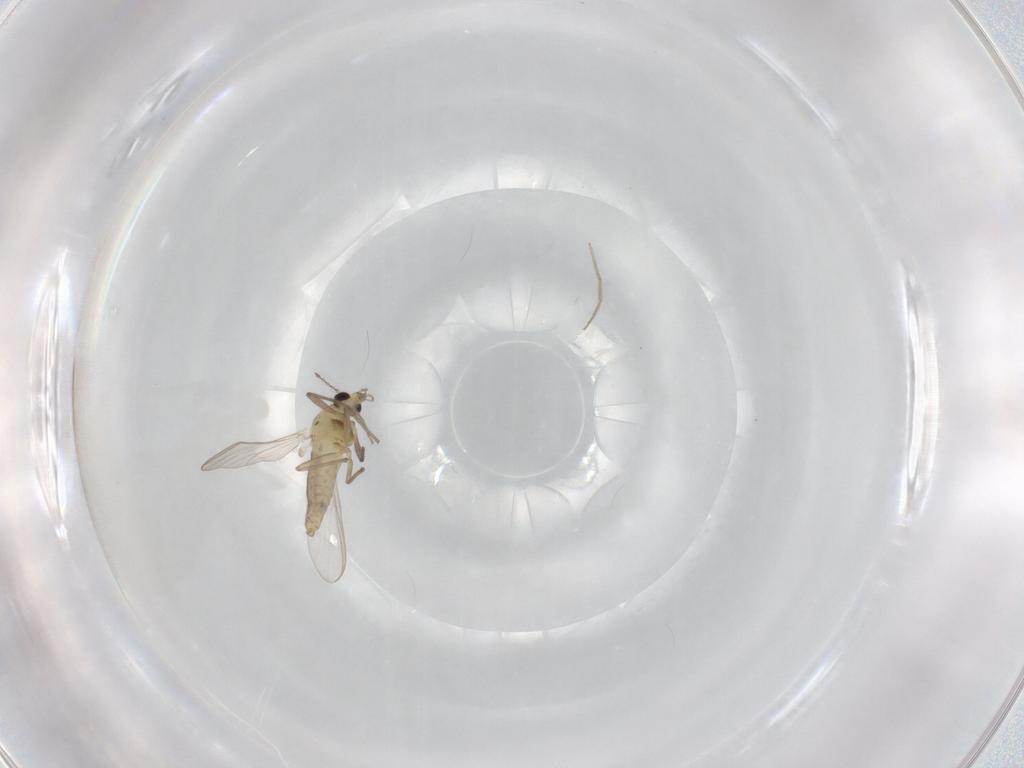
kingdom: Animalia
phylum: Arthropoda
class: Insecta
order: Diptera
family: Chironomidae
